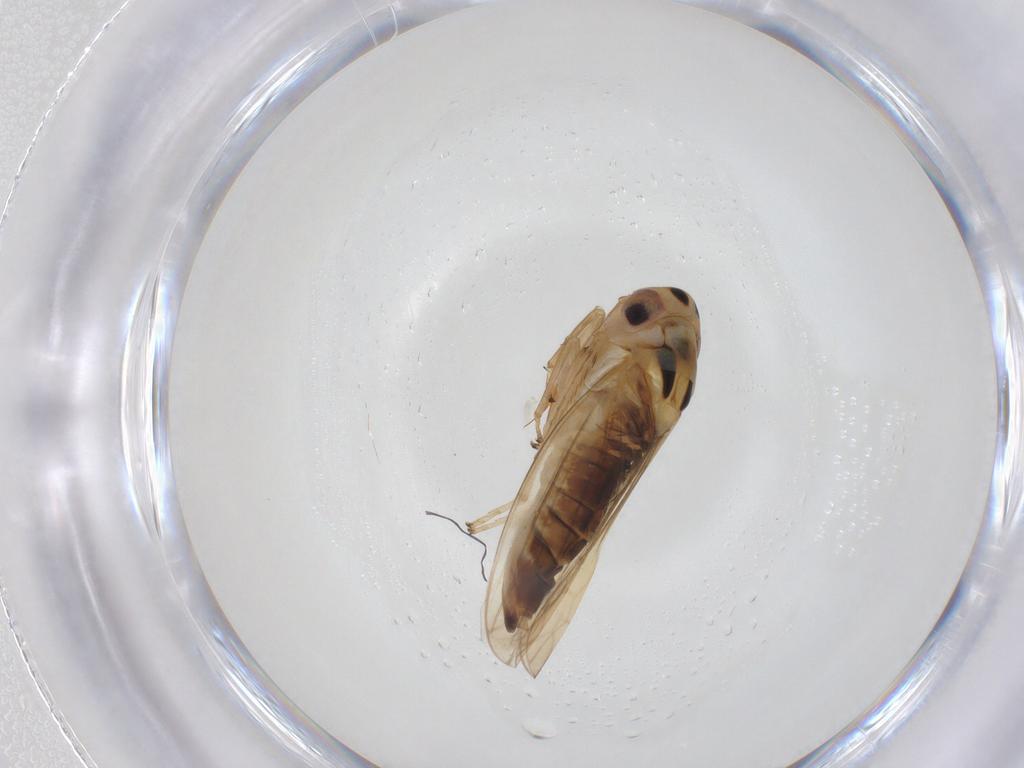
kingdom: Animalia
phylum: Arthropoda
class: Insecta
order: Hemiptera
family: Cicadellidae
